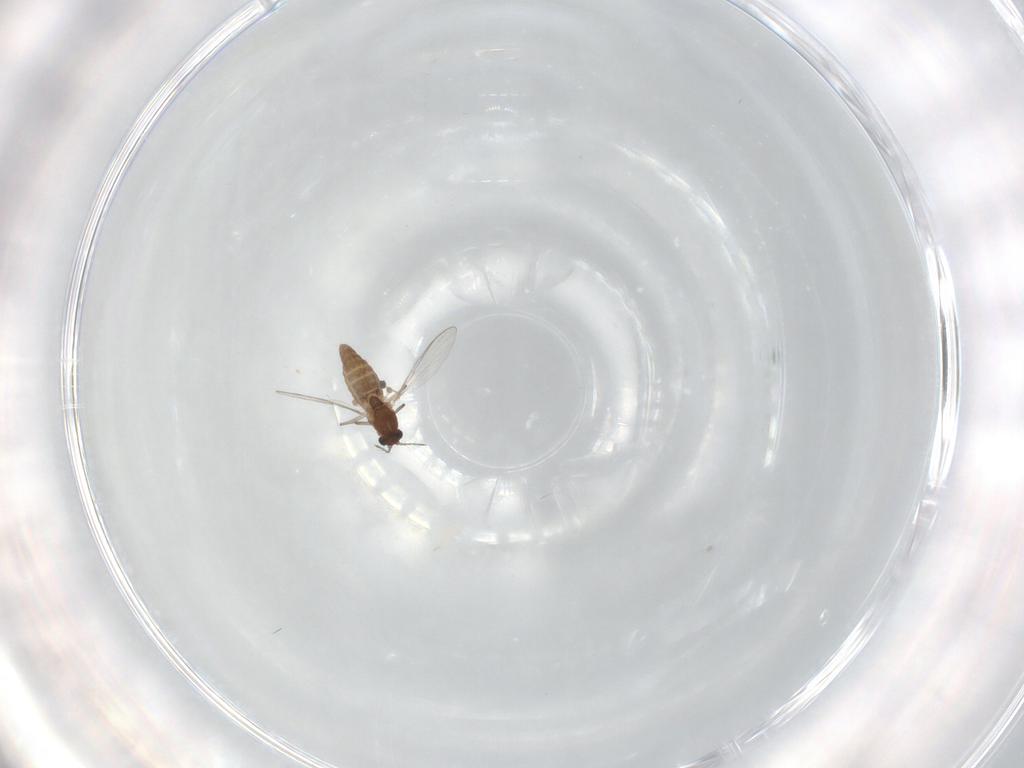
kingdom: Animalia
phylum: Arthropoda
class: Insecta
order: Diptera
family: Chironomidae
